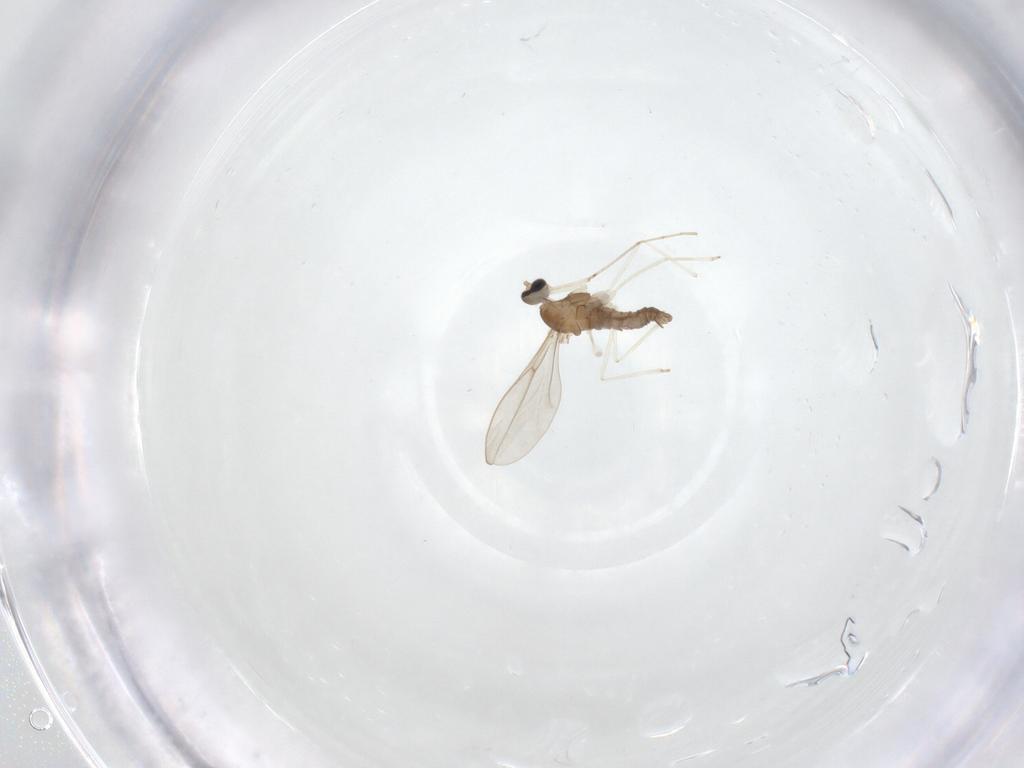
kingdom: Animalia
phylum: Arthropoda
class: Insecta
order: Diptera
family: Cecidomyiidae
